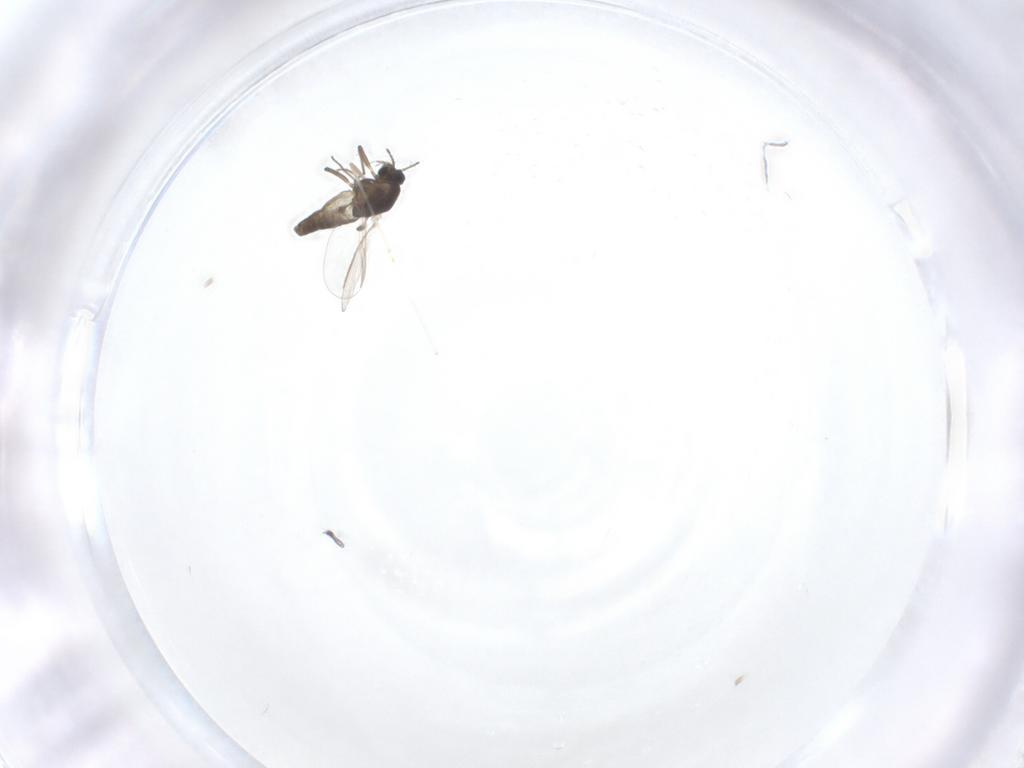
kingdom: Animalia
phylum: Arthropoda
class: Insecta
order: Diptera
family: Chironomidae
